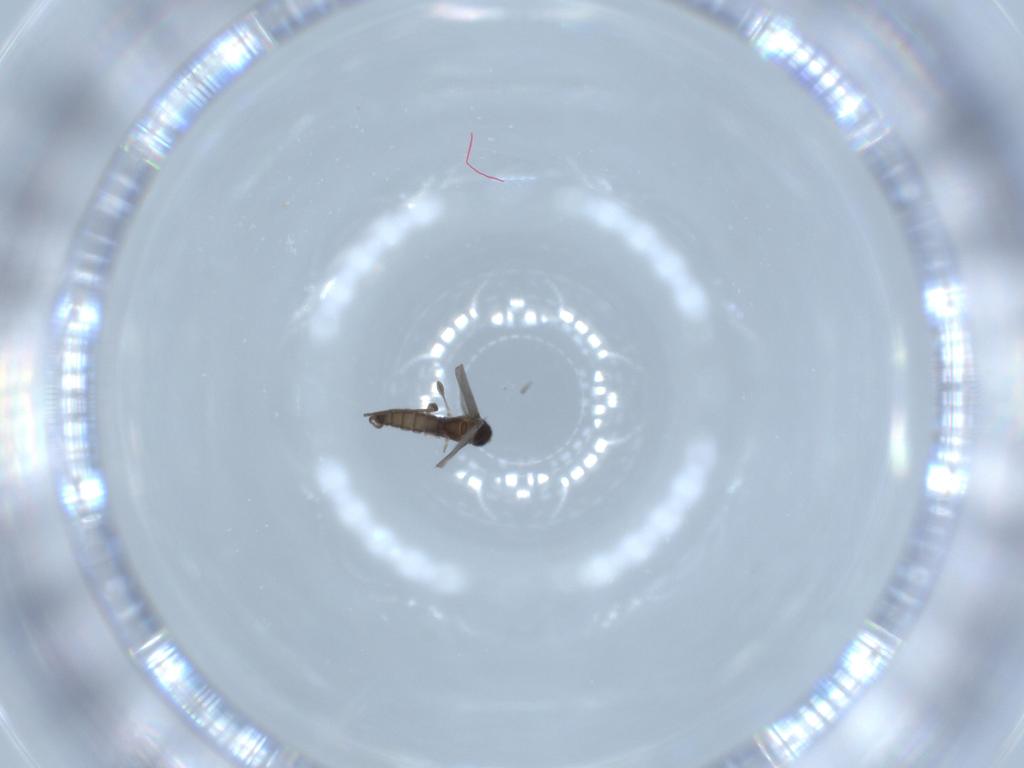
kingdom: Animalia
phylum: Arthropoda
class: Insecta
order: Diptera
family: Sciaridae
